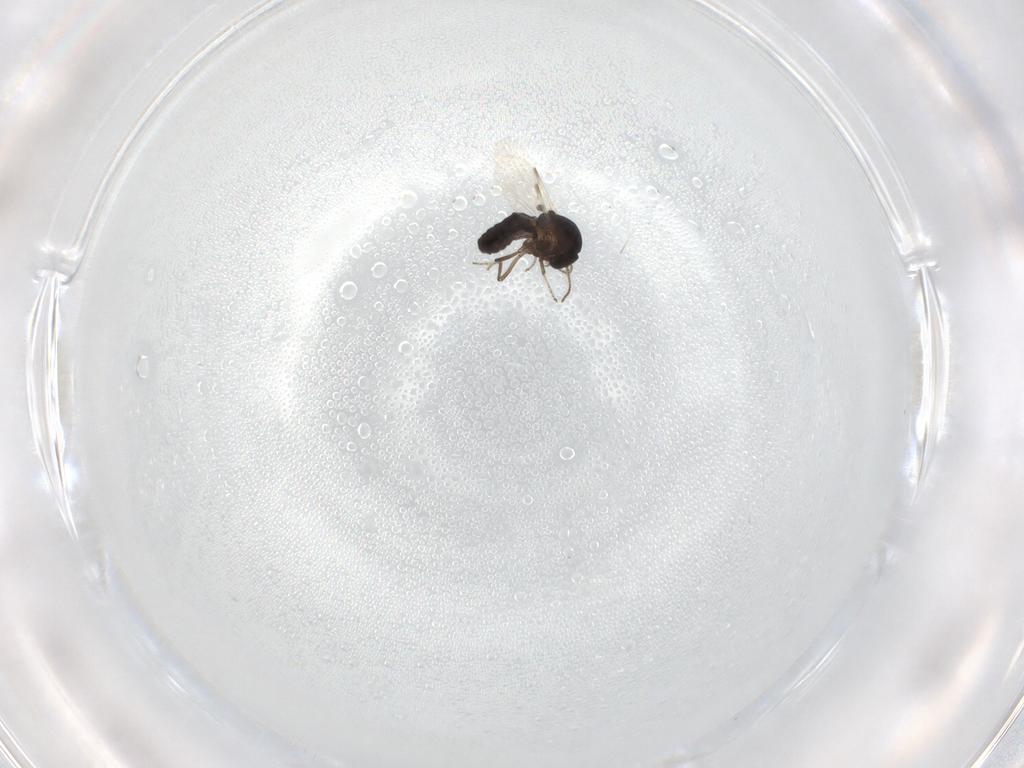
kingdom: Animalia
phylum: Arthropoda
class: Insecta
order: Diptera
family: Ceratopogonidae
